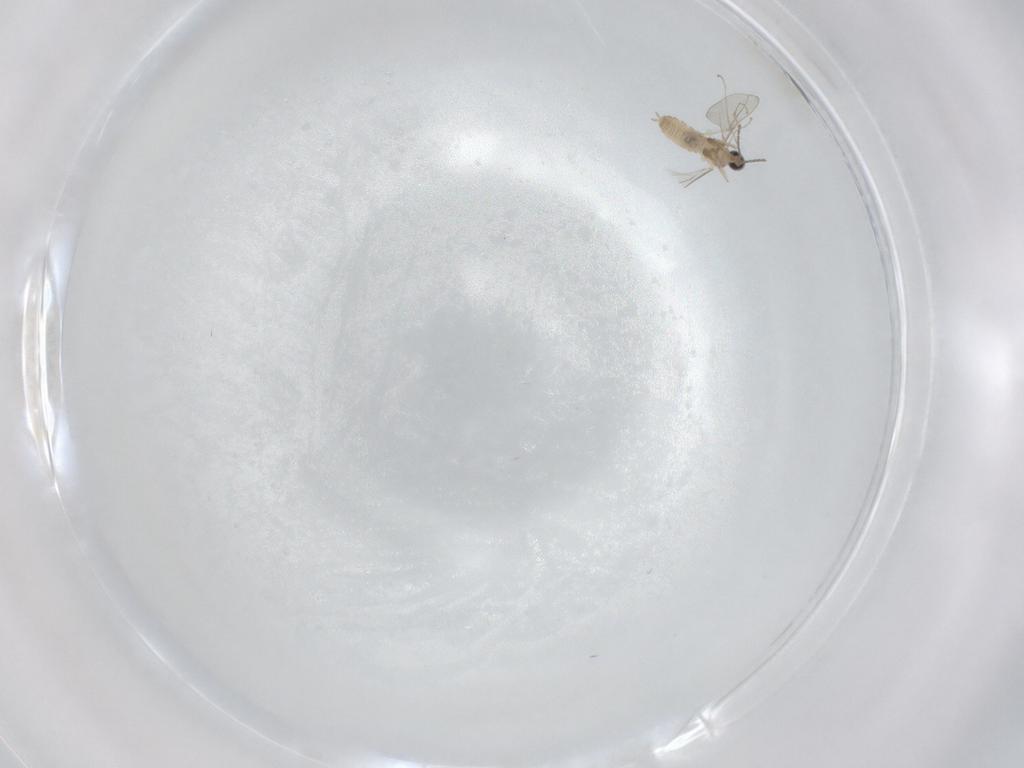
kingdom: Animalia
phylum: Arthropoda
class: Insecta
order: Diptera
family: Cecidomyiidae
